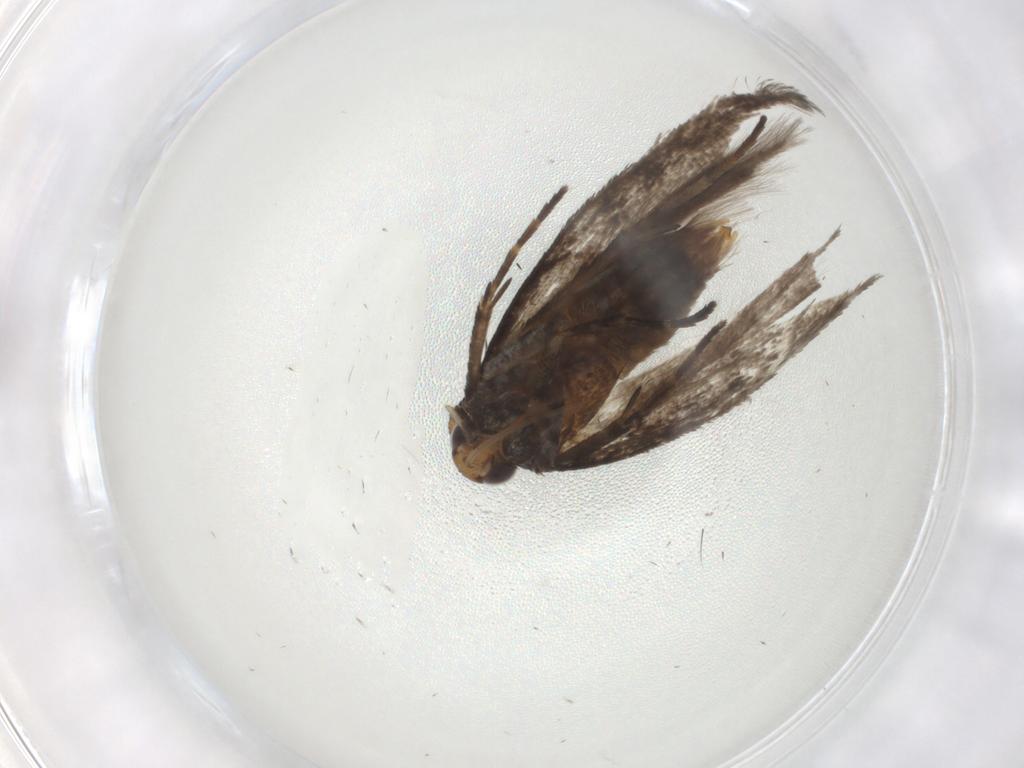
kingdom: Animalia
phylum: Arthropoda
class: Insecta
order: Lepidoptera
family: Gelechiidae
